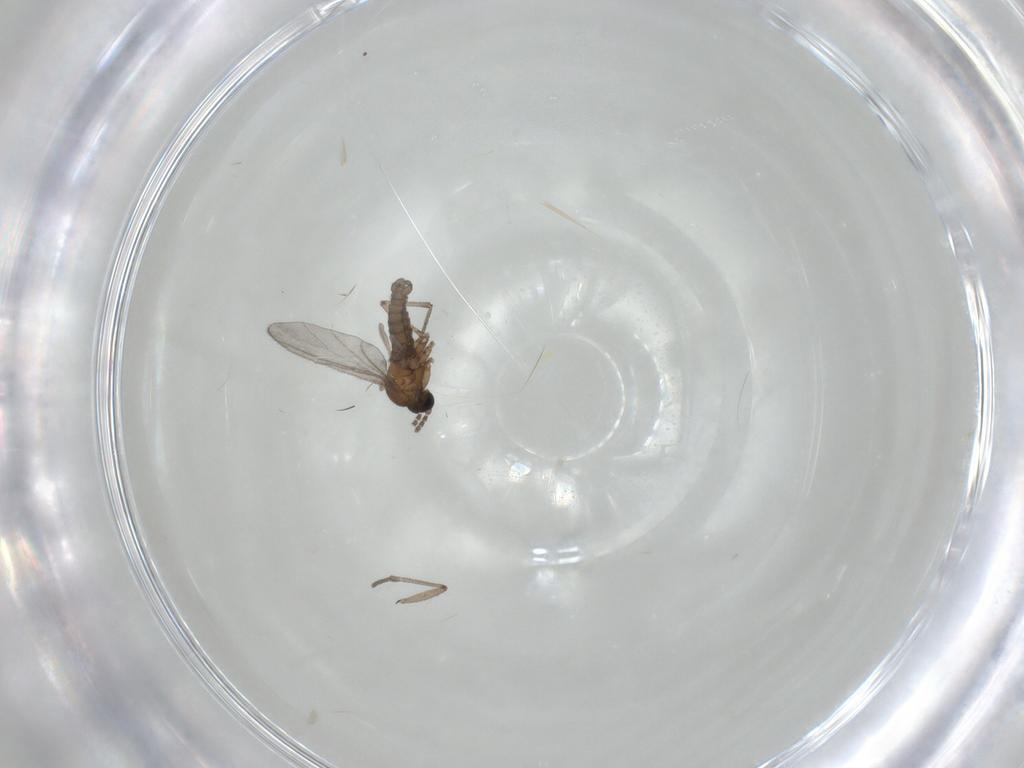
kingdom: Animalia
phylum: Arthropoda
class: Insecta
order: Diptera
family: Sciaridae
